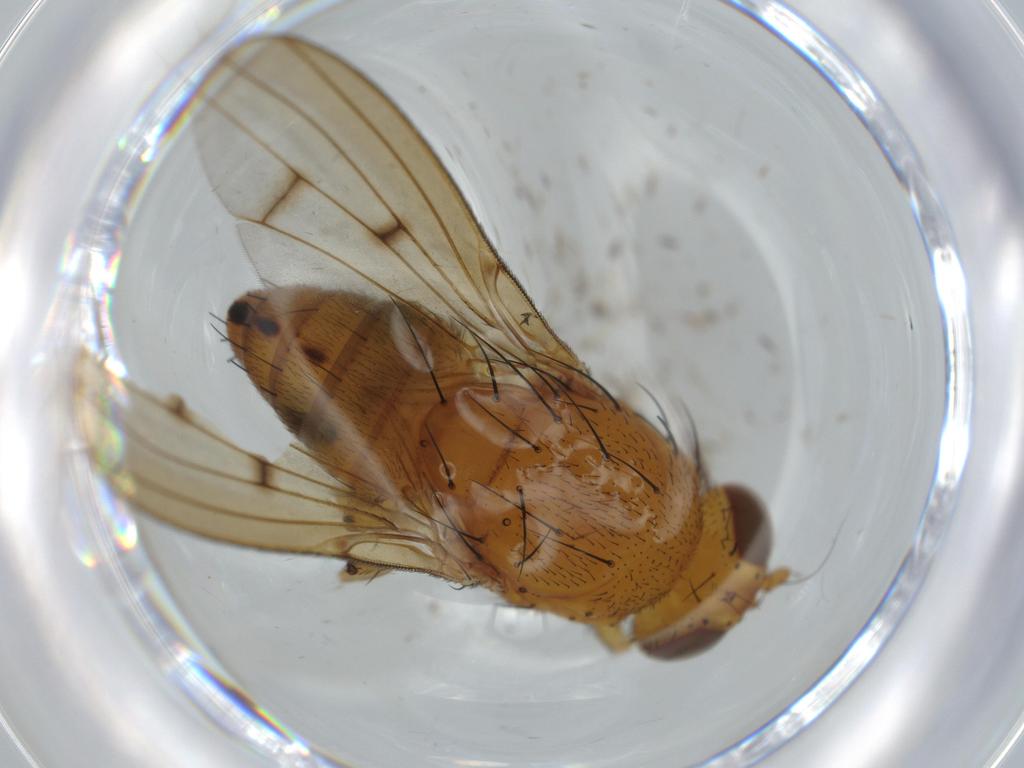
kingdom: Animalia
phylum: Arthropoda
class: Insecta
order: Diptera
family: Chironomidae
